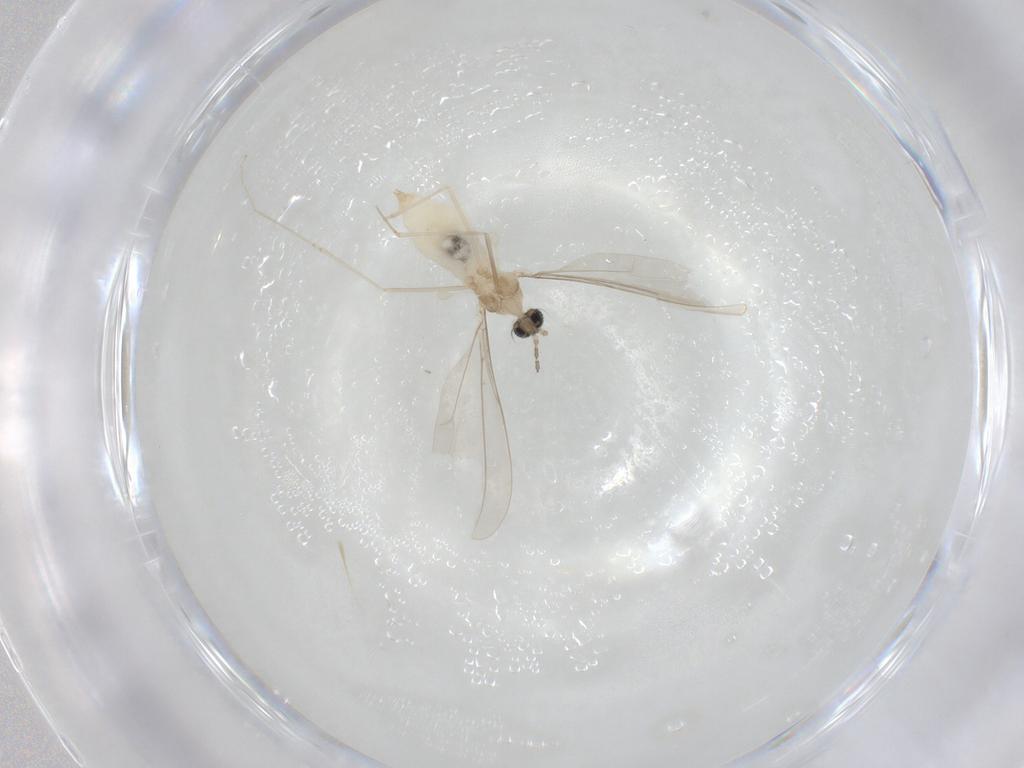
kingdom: Animalia
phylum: Arthropoda
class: Insecta
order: Diptera
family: Cecidomyiidae
